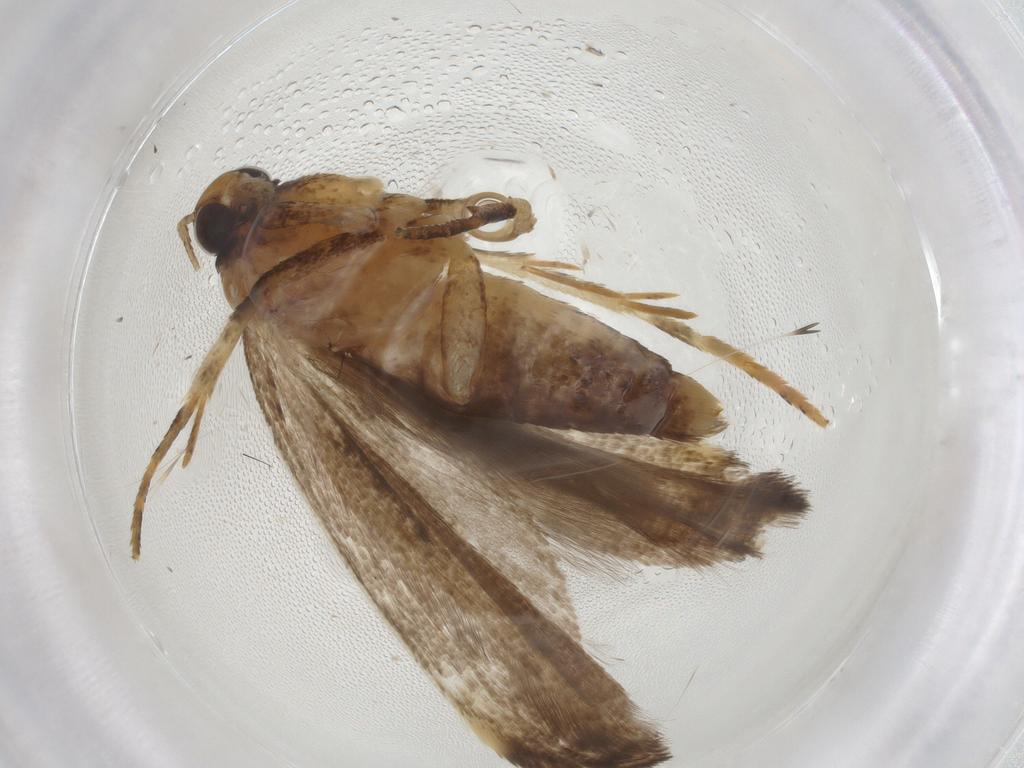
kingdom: Animalia
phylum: Arthropoda
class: Insecta
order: Lepidoptera
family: Gelechiidae
